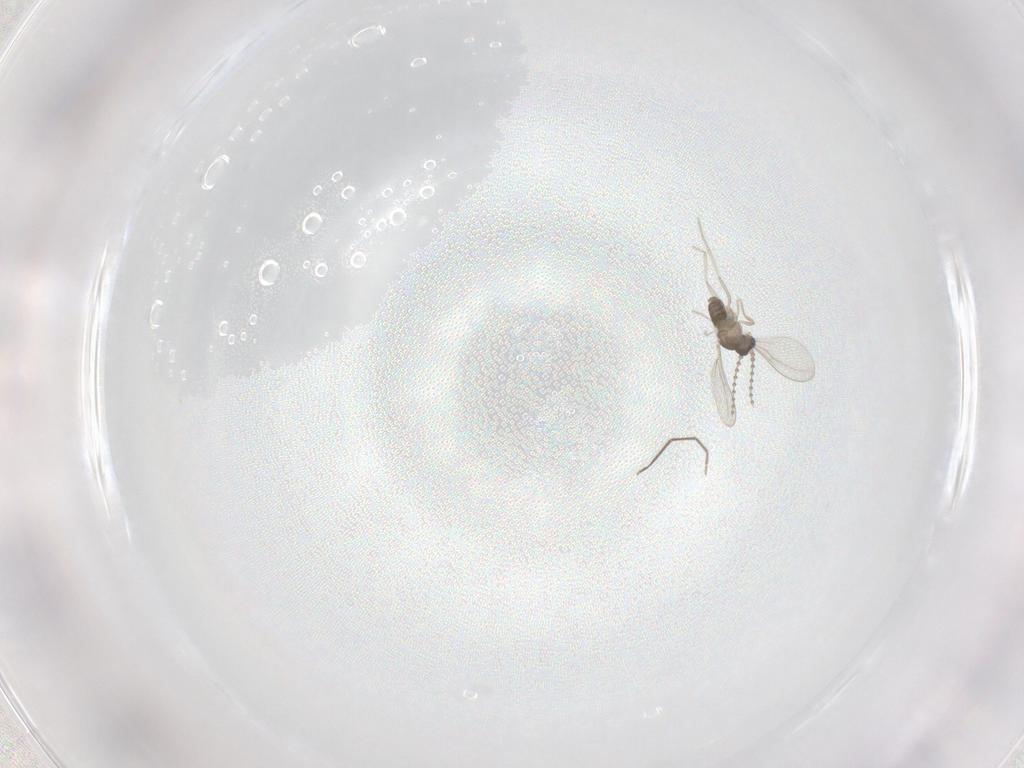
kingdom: Animalia
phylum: Arthropoda
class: Insecta
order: Diptera
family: Cecidomyiidae
